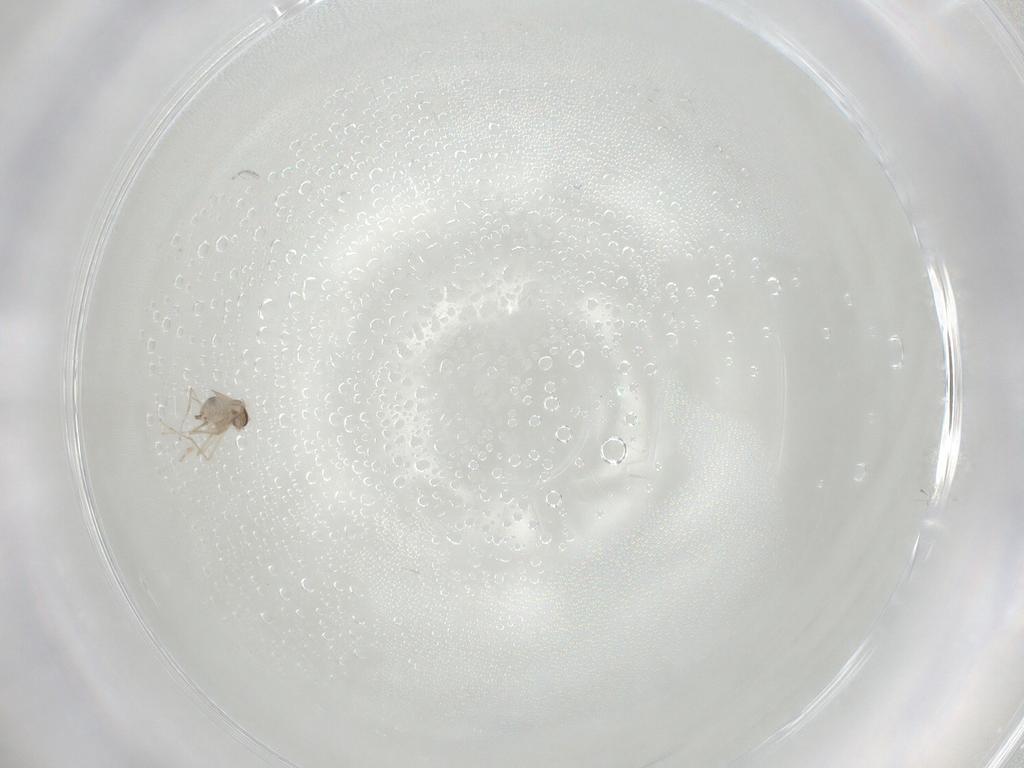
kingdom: Animalia
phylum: Arthropoda
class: Insecta
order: Diptera
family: Cecidomyiidae
